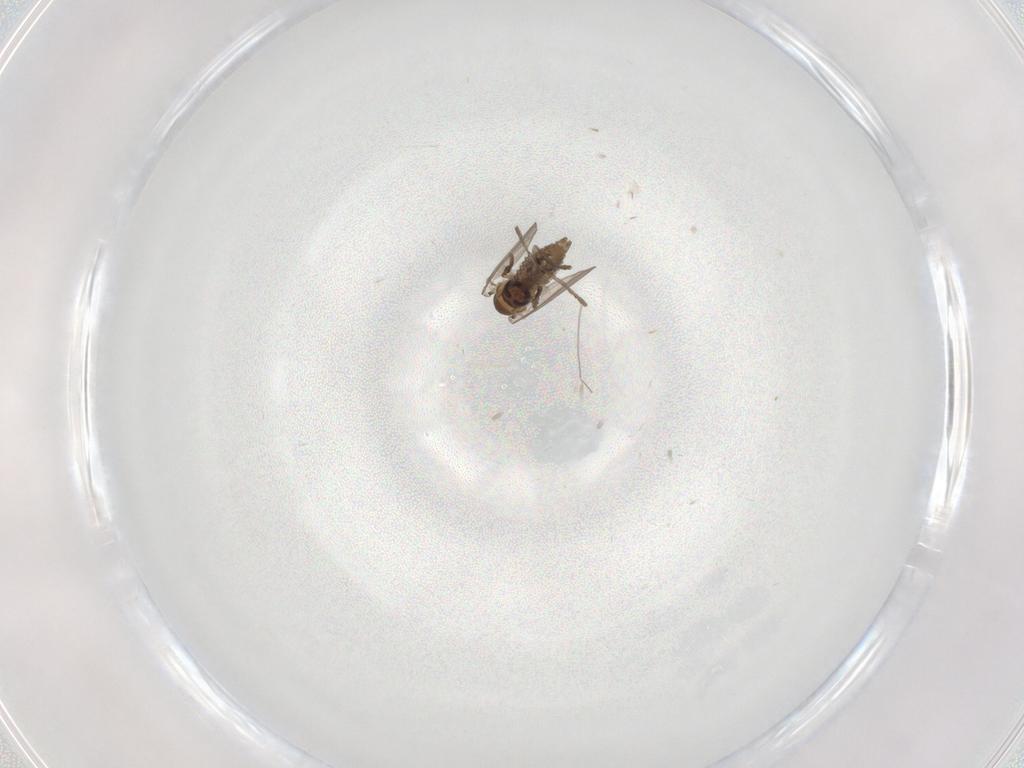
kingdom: Animalia
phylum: Arthropoda
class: Insecta
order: Diptera
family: Psychodidae
